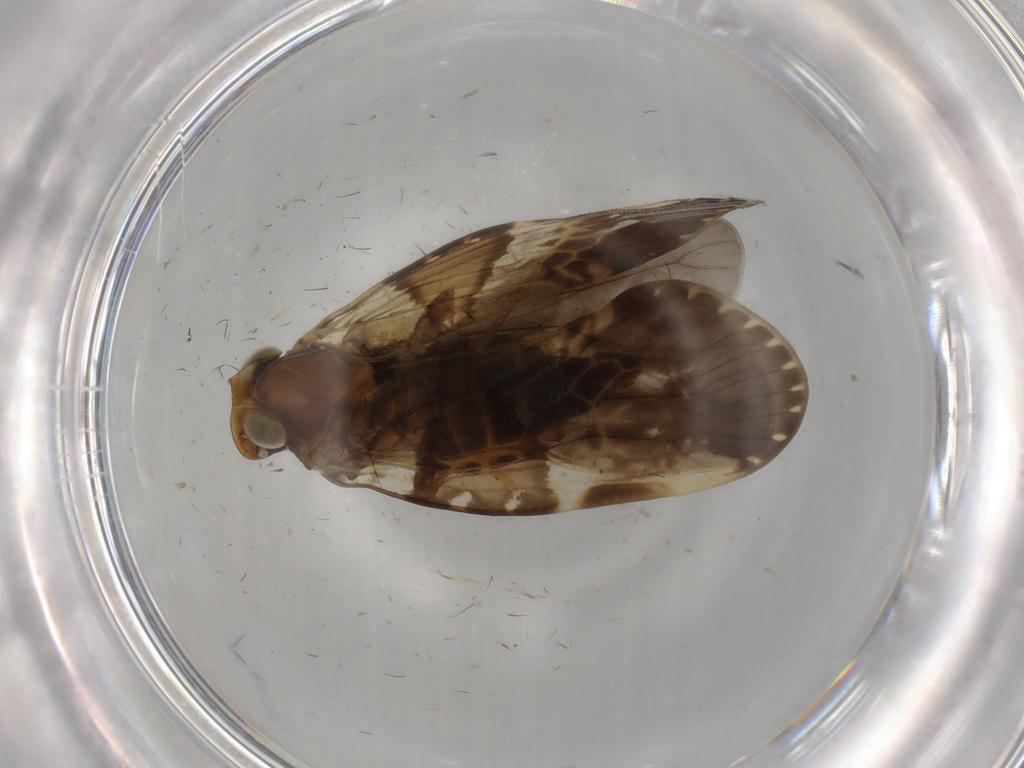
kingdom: Animalia
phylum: Arthropoda
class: Insecta
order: Hemiptera
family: Cixiidae
